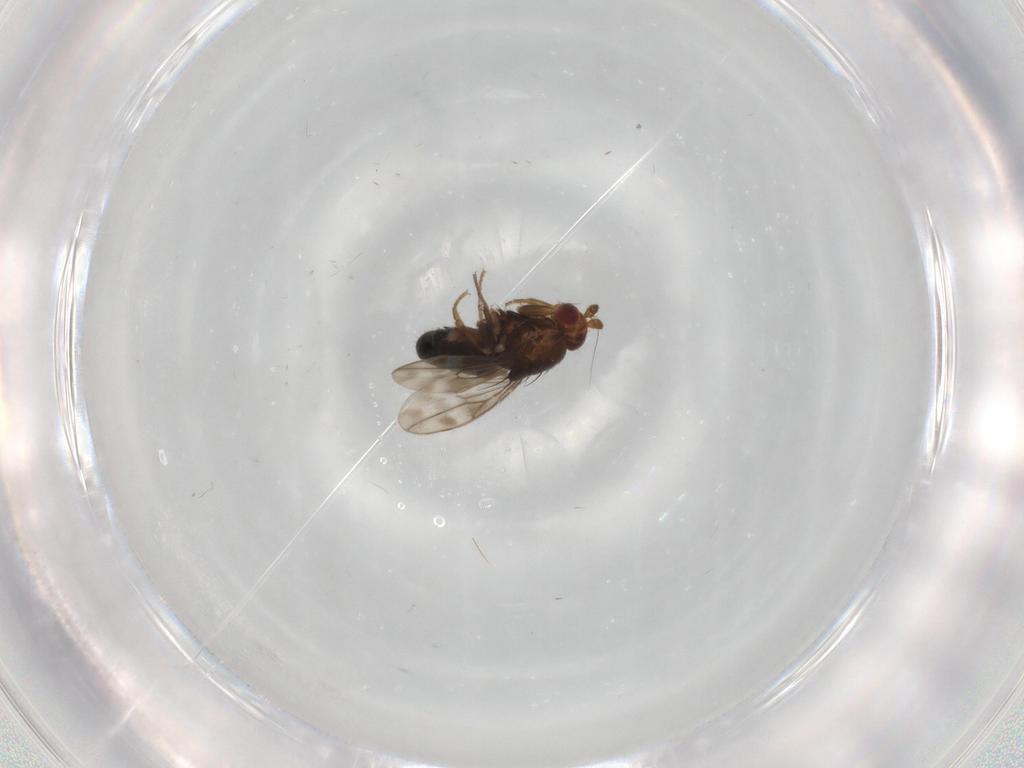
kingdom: Animalia
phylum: Arthropoda
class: Insecta
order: Diptera
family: Sphaeroceridae
